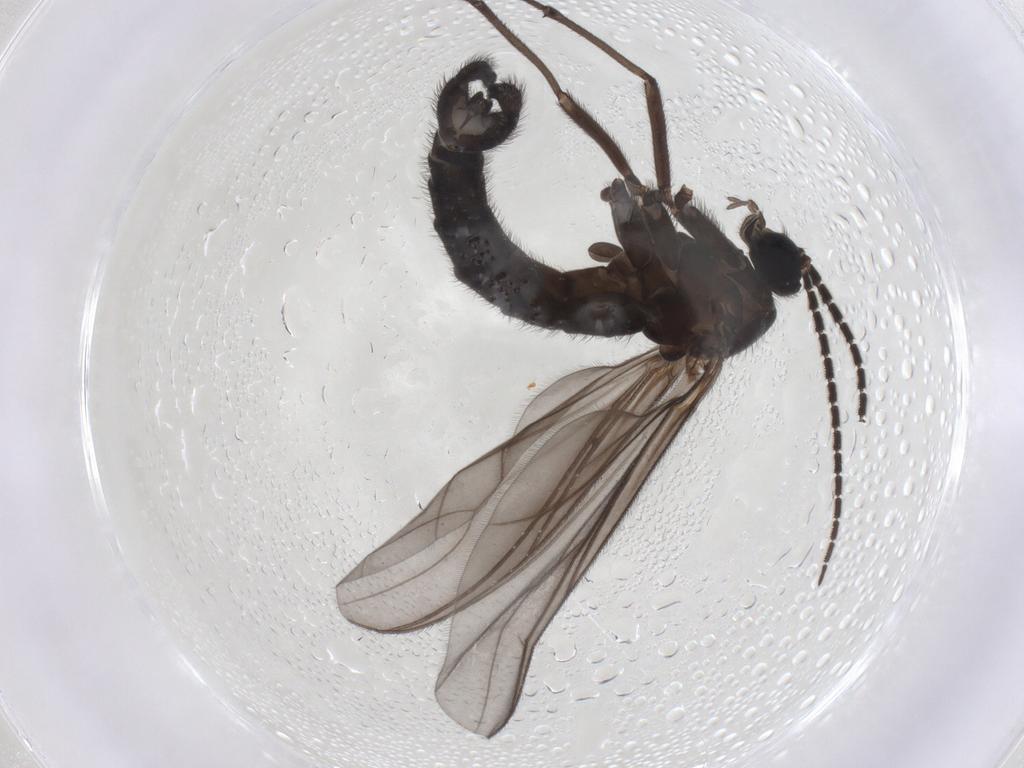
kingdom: Animalia
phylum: Arthropoda
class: Insecta
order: Diptera
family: Sciaridae
